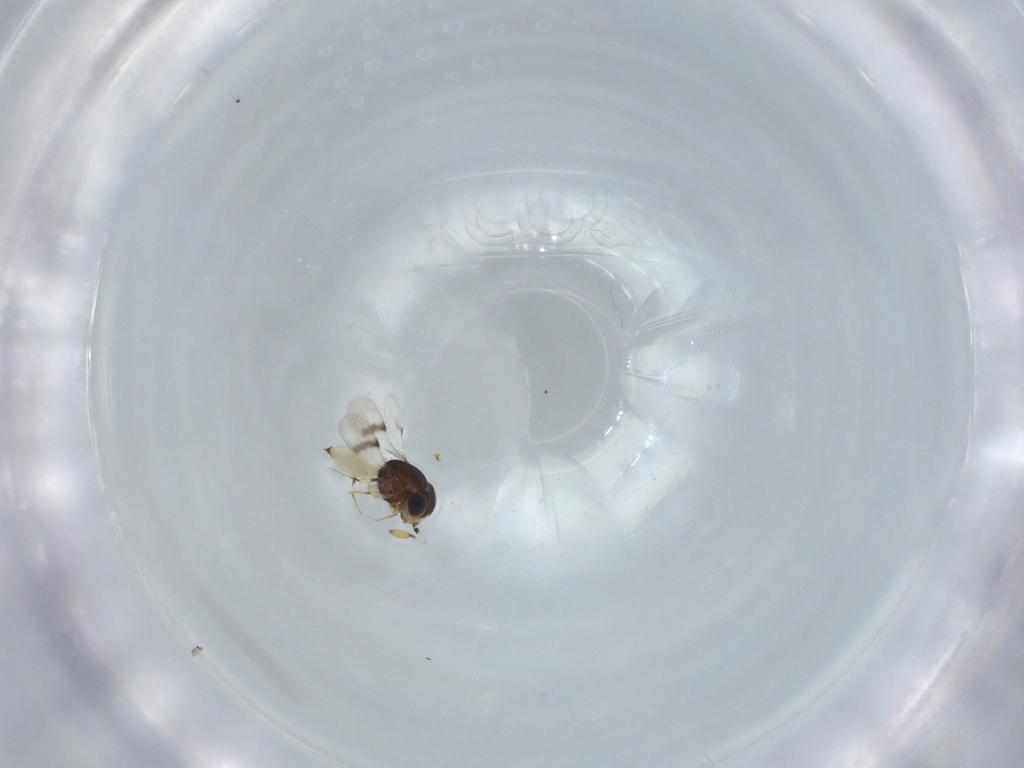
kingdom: Animalia
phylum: Arthropoda
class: Insecta
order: Hymenoptera
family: Scelionidae
